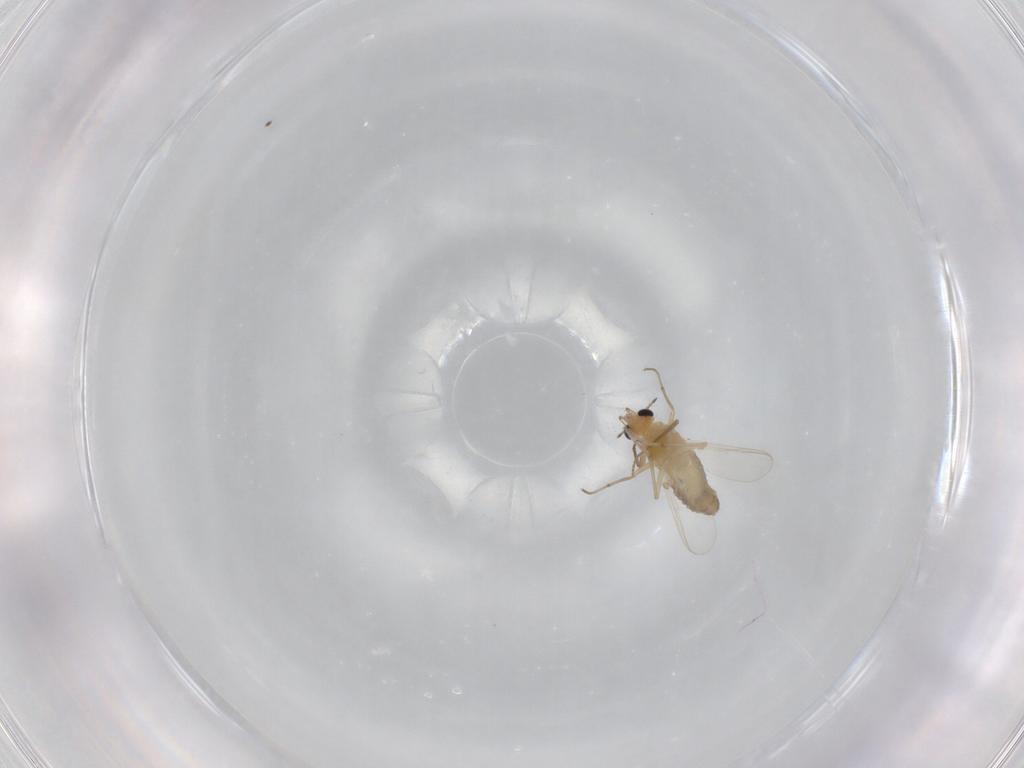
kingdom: Animalia
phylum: Arthropoda
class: Insecta
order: Diptera
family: Chironomidae
